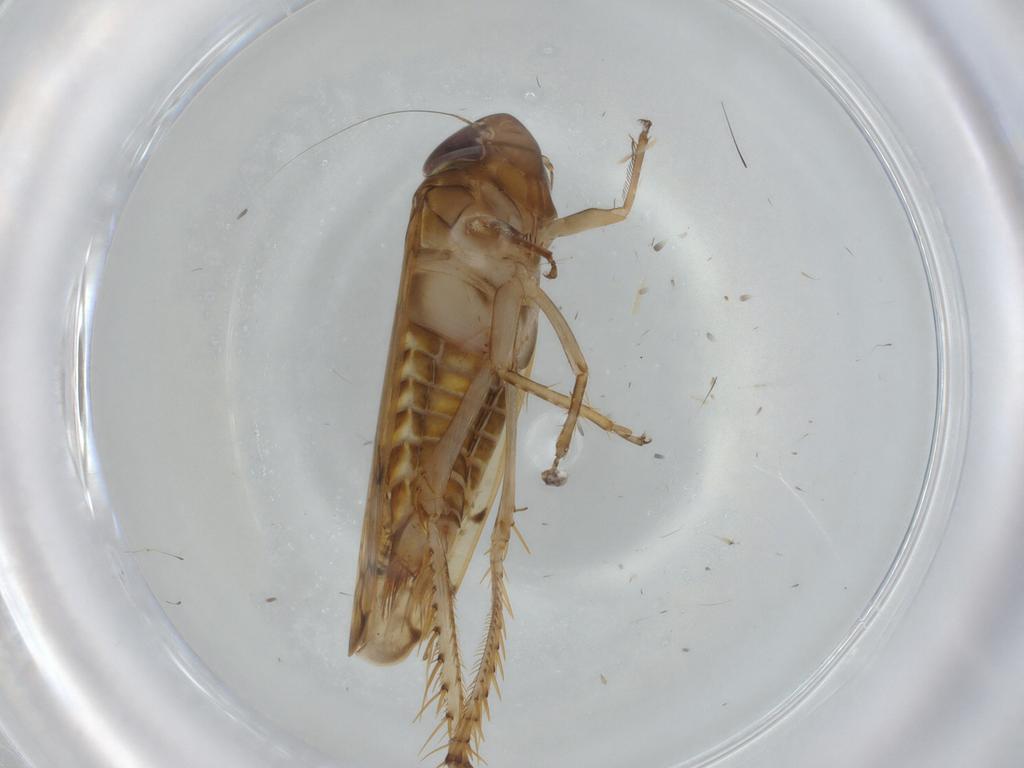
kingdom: Animalia
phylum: Arthropoda
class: Insecta
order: Hemiptera
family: Cicadellidae
